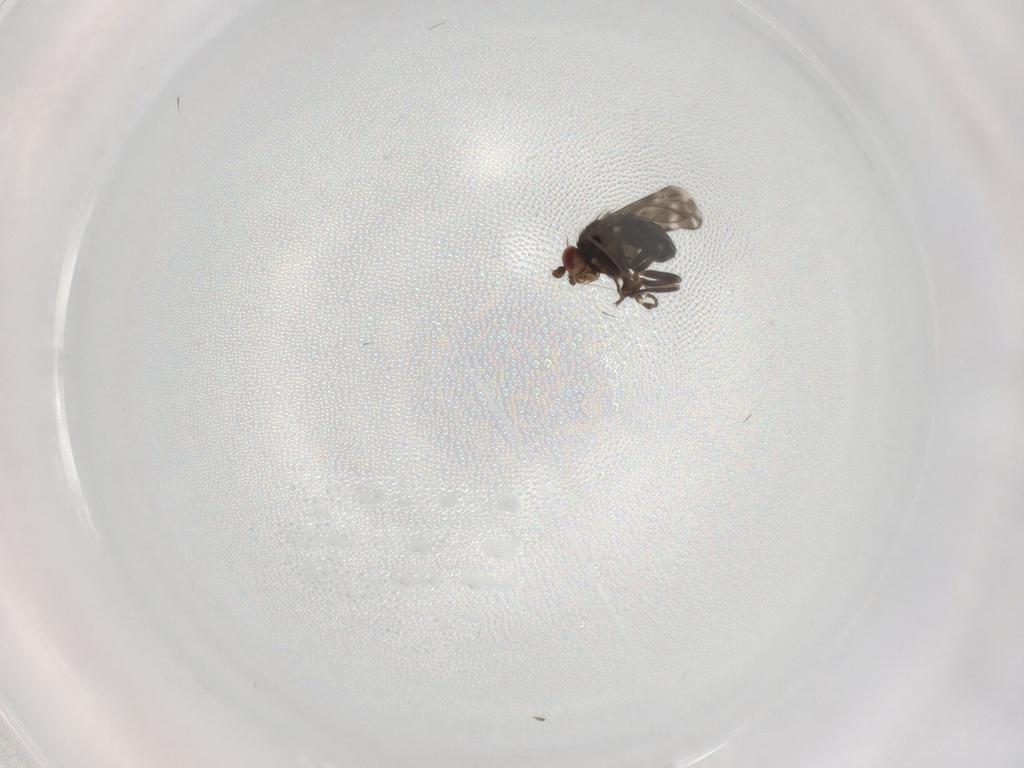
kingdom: Animalia
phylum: Arthropoda
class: Insecta
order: Diptera
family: Sphaeroceridae
